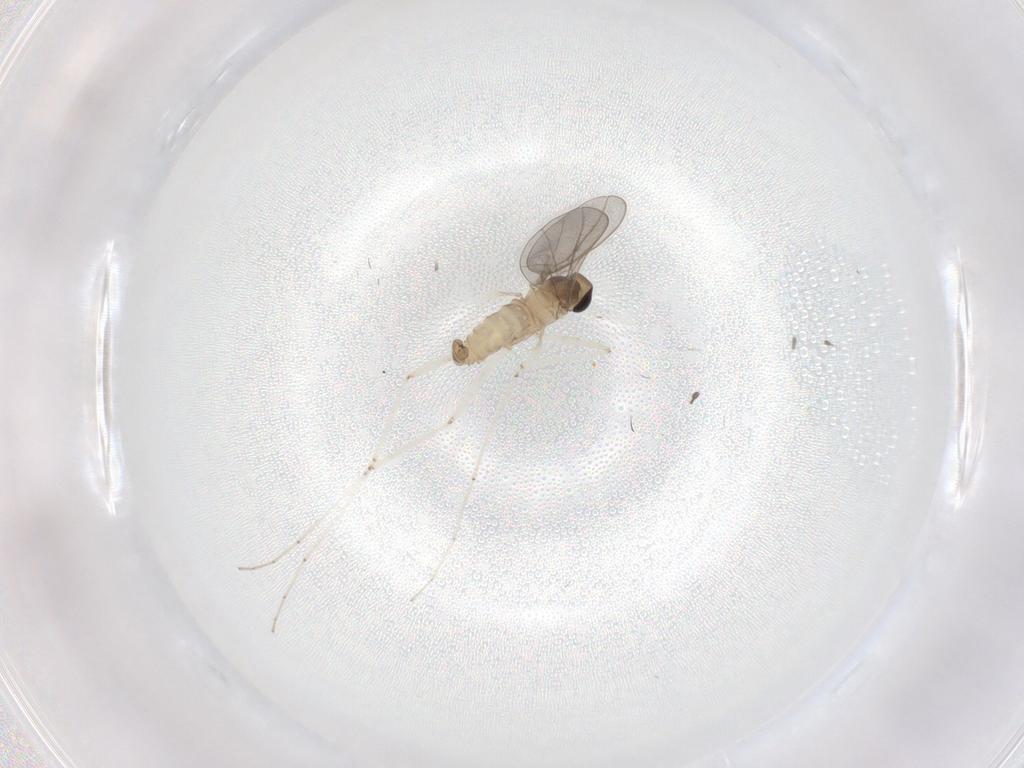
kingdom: Animalia
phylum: Arthropoda
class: Insecta
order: Diptera
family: Cecidomyiidae
